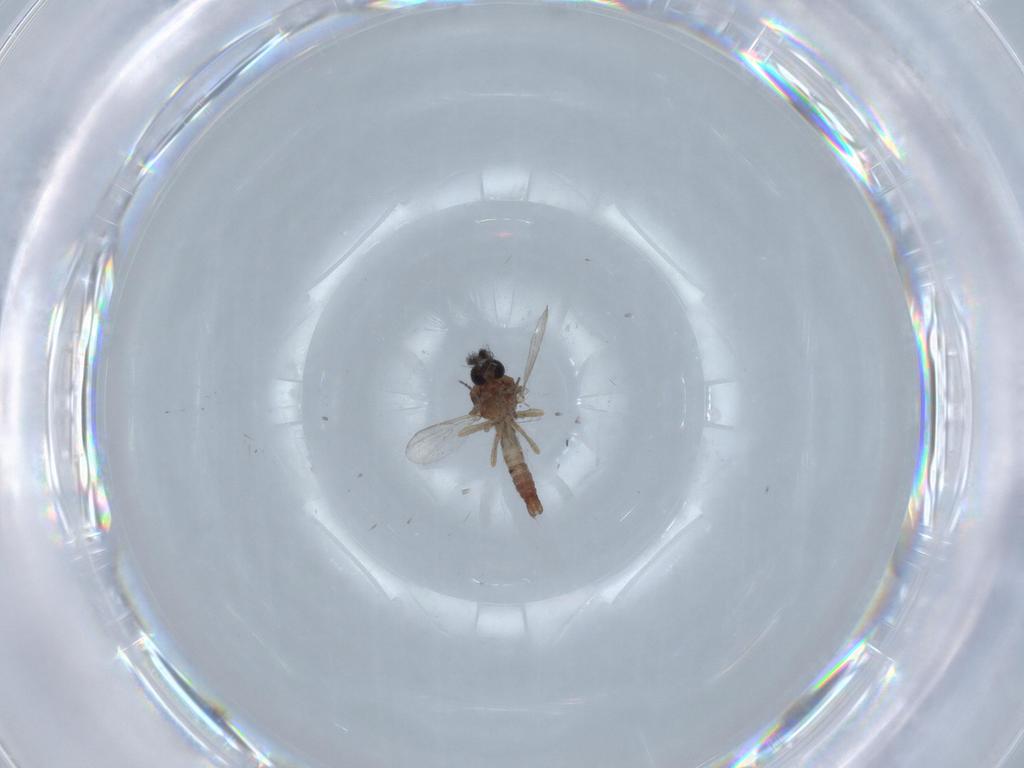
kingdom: Animalia
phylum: Arthropoda
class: Insecta
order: Diptera
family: Ceratopogonidae
